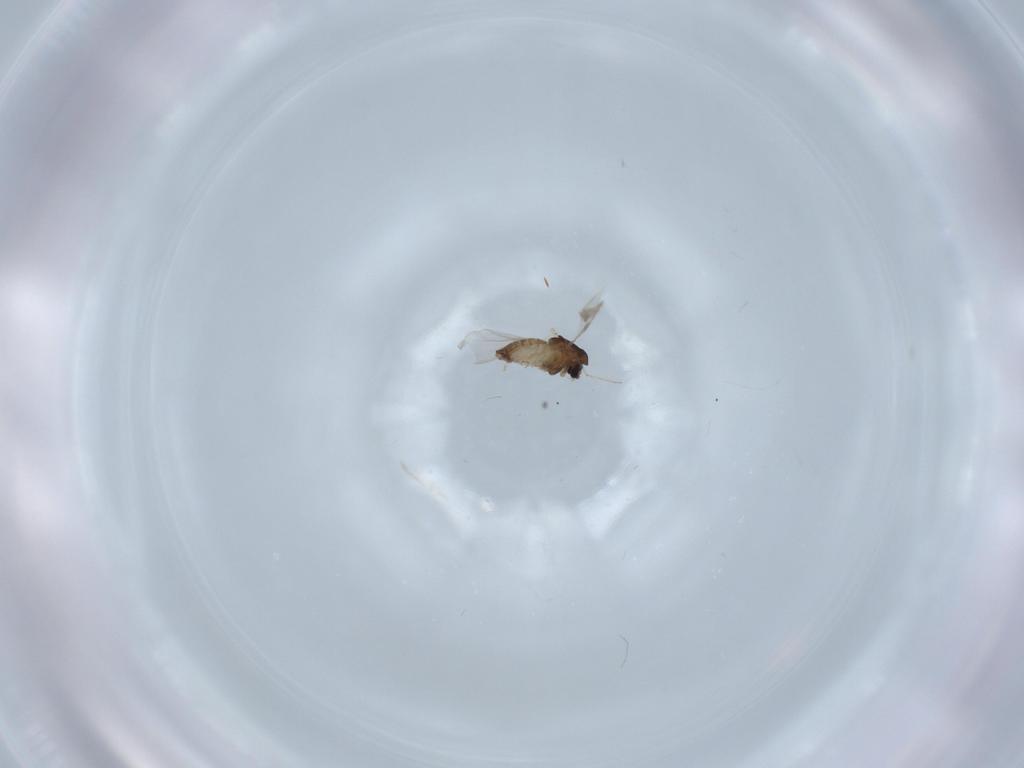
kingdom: Animalia
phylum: Arthropoda
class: Insecta
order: Diptera
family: Chironomidae
